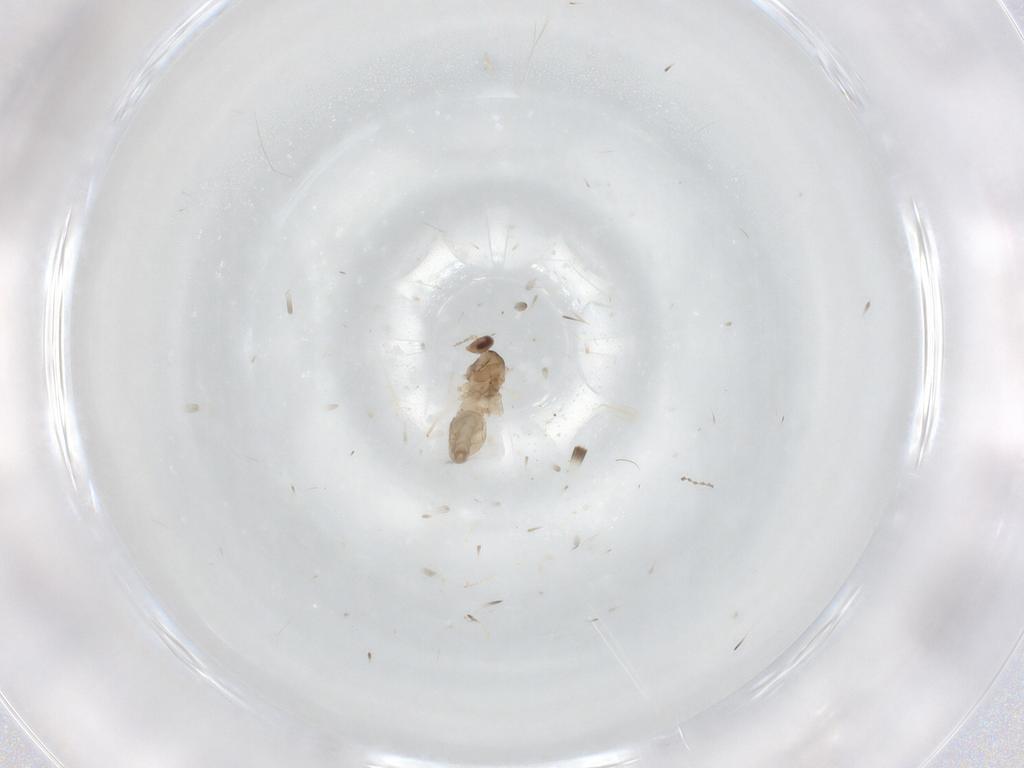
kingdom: Animalia
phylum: Arthropoda
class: Insecta
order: Diptera
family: Cecidomyiidae
